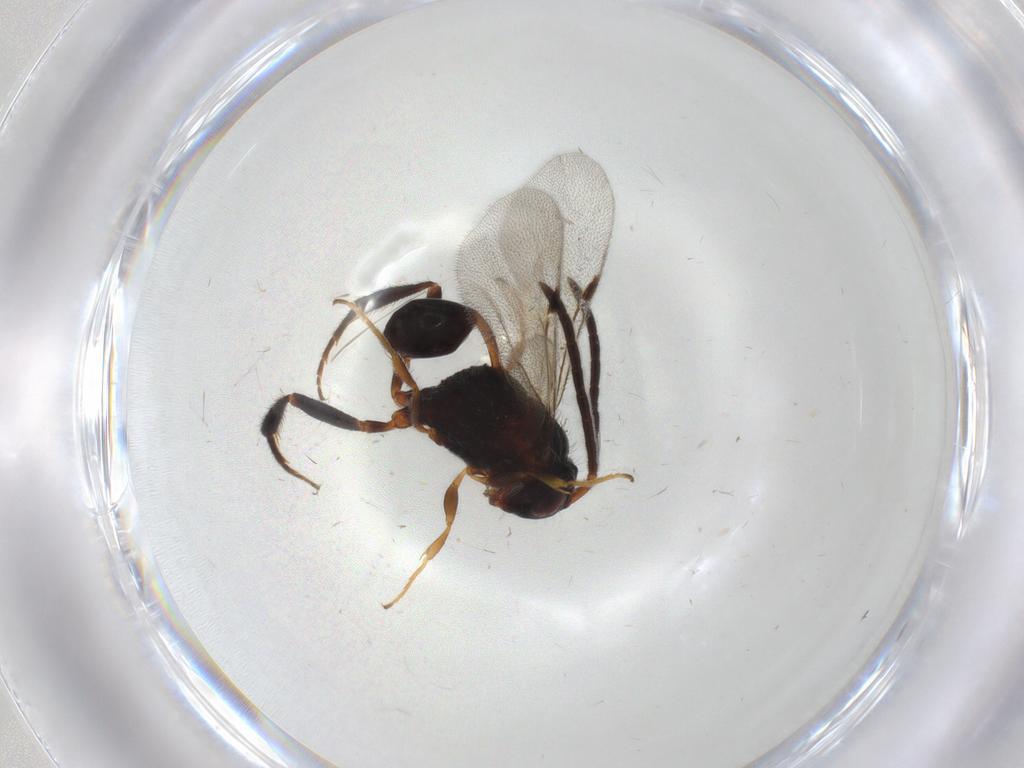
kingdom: Animalia
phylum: Arthropoda
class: Insecta
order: Hymenoptera
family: Evaniidae
